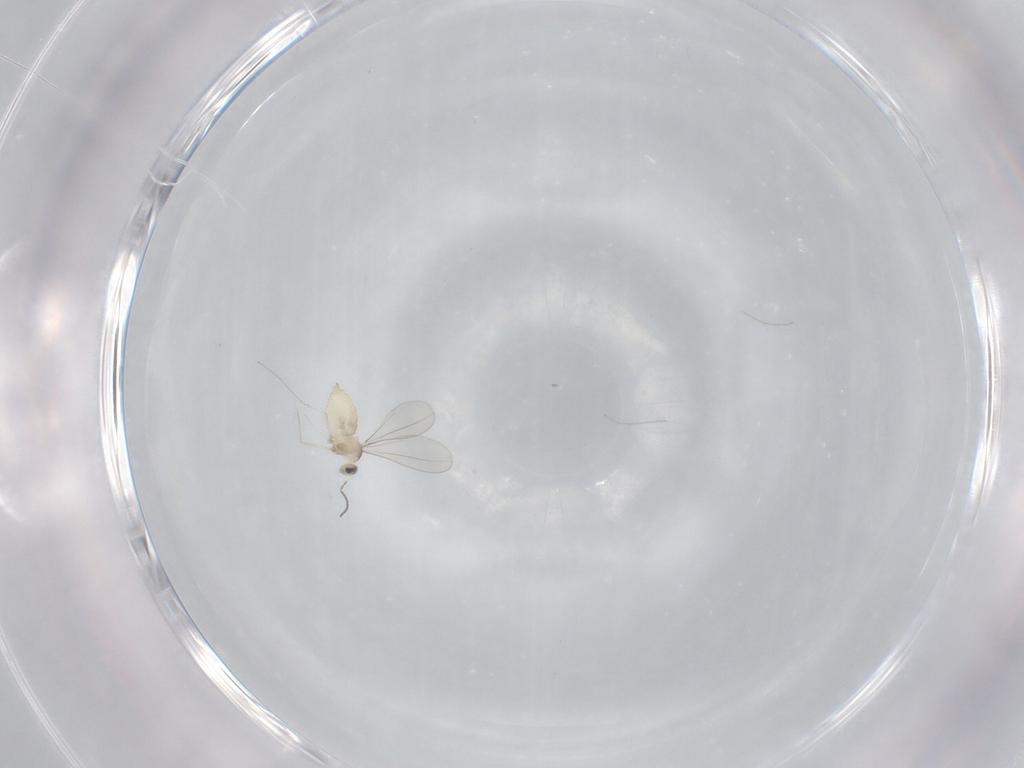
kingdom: Animalia
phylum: Arthropoda
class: Insecta
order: Diptera
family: Cecidomyiidae
